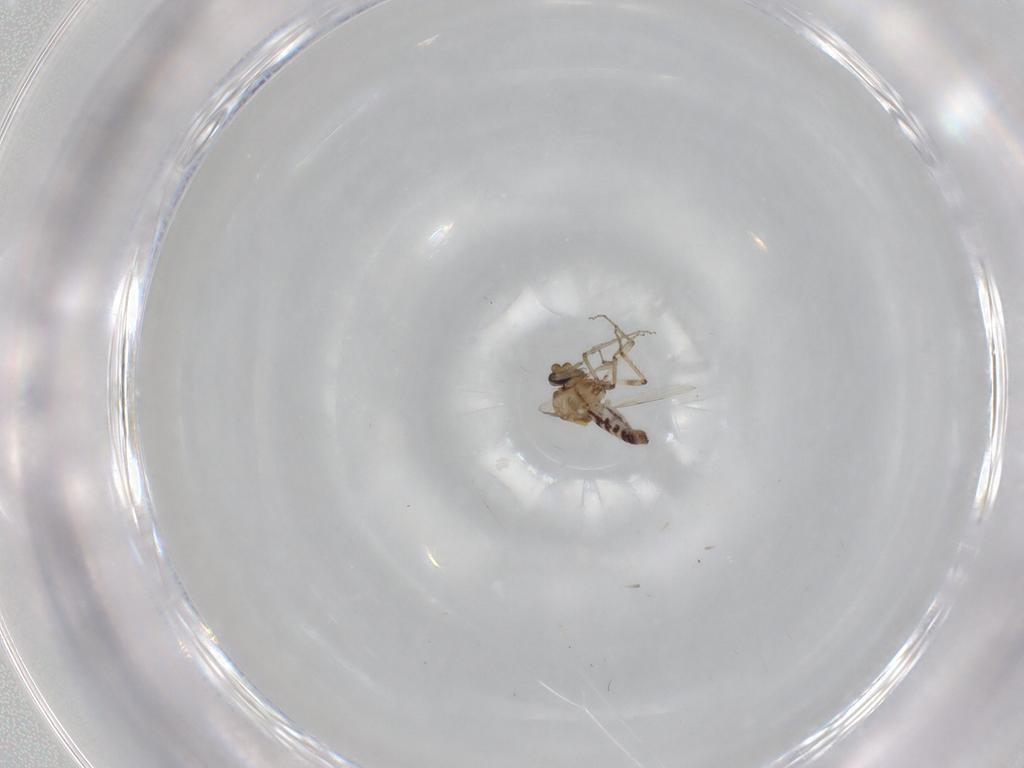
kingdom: Animalia
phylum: Arthropoda
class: Insecta
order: Diptera
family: Ceratopogonidae
